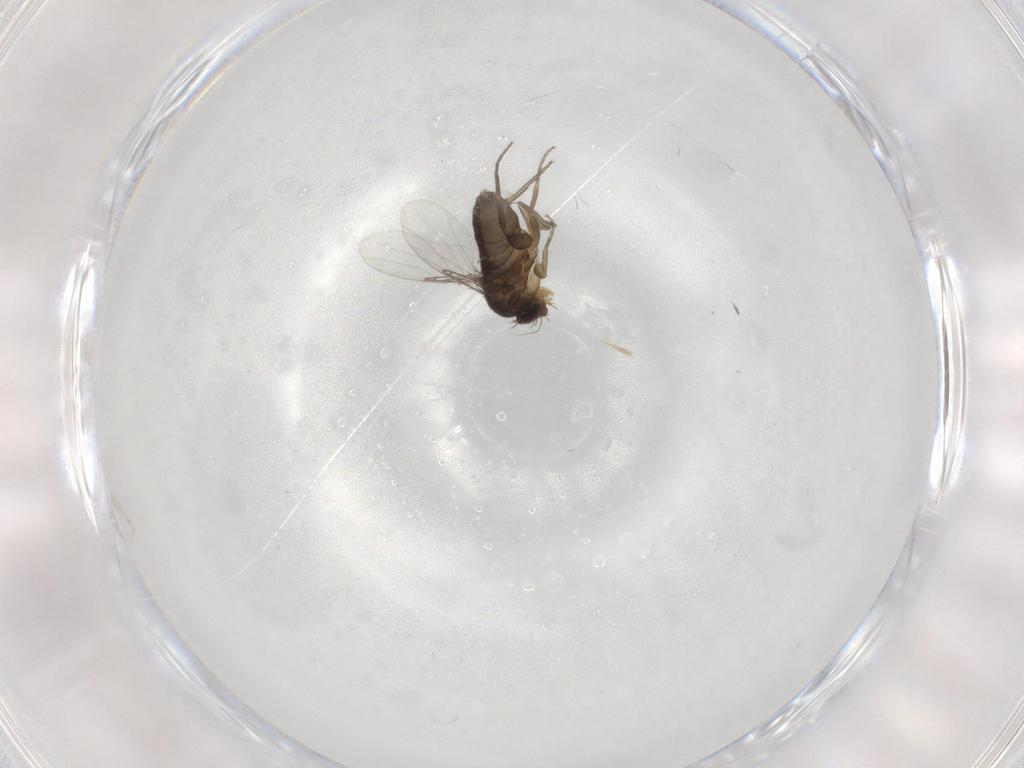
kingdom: Animalia
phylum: Arthropoda
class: Insecta
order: Diptera
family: Phoridae
